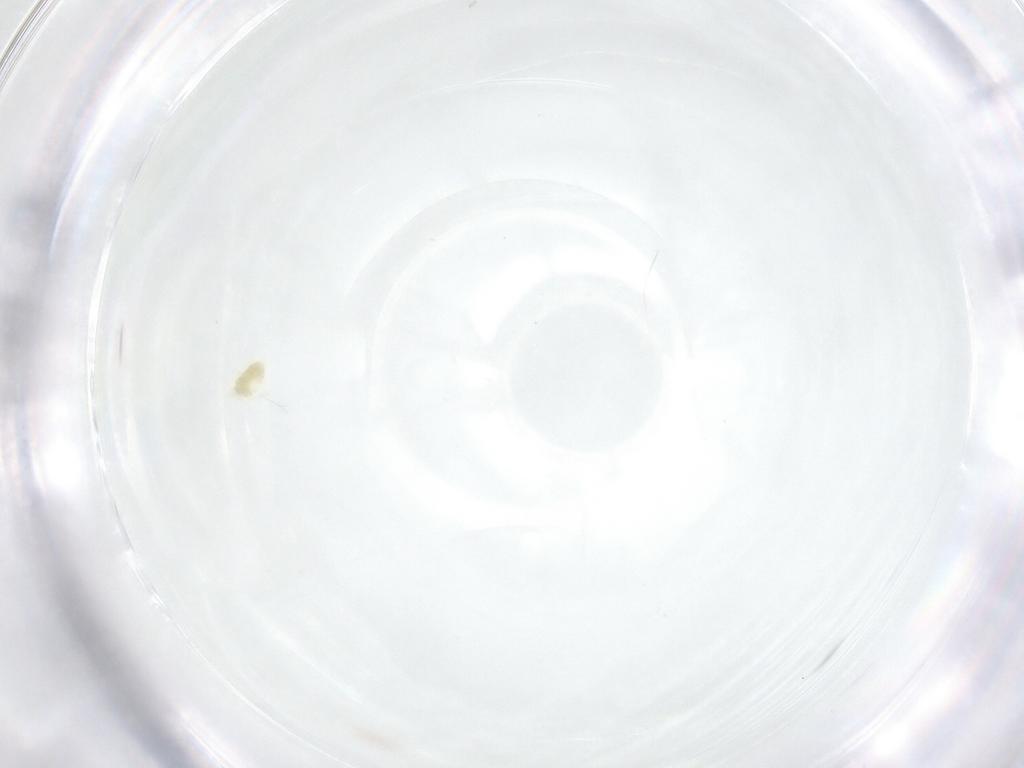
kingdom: Animalia
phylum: Arthropoda
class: Insecta
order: Diptera
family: Cecidomyiidae
